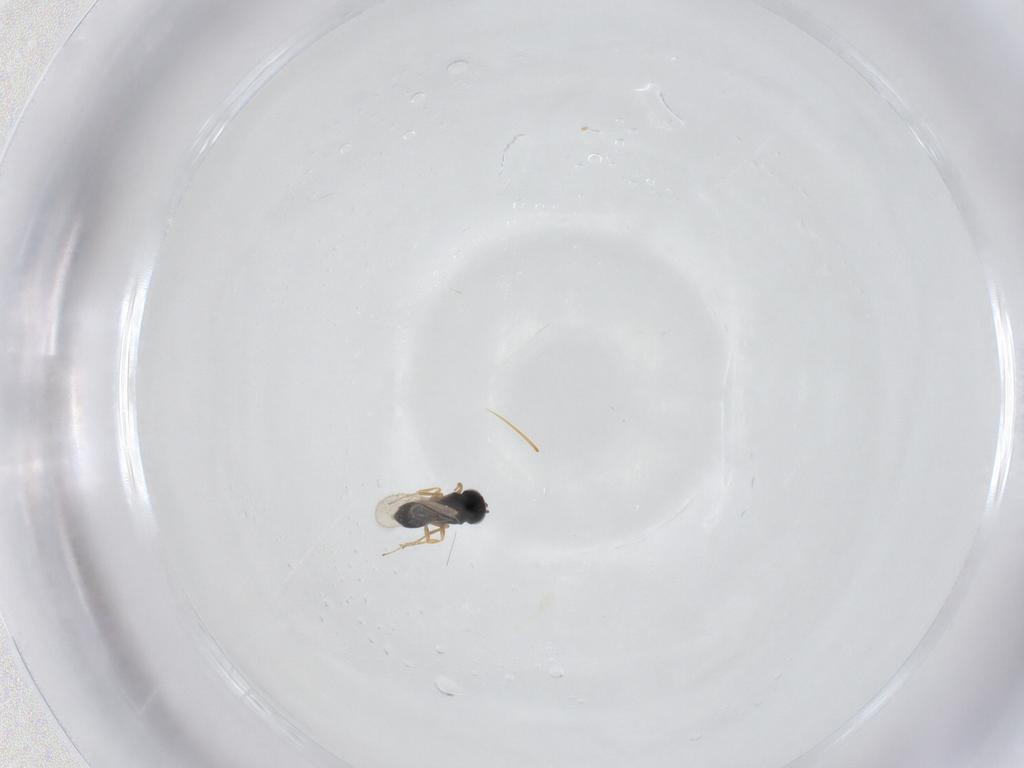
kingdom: Animalia
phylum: Arthropoda
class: Insecta
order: Hymenoptera
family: Scelionidae
